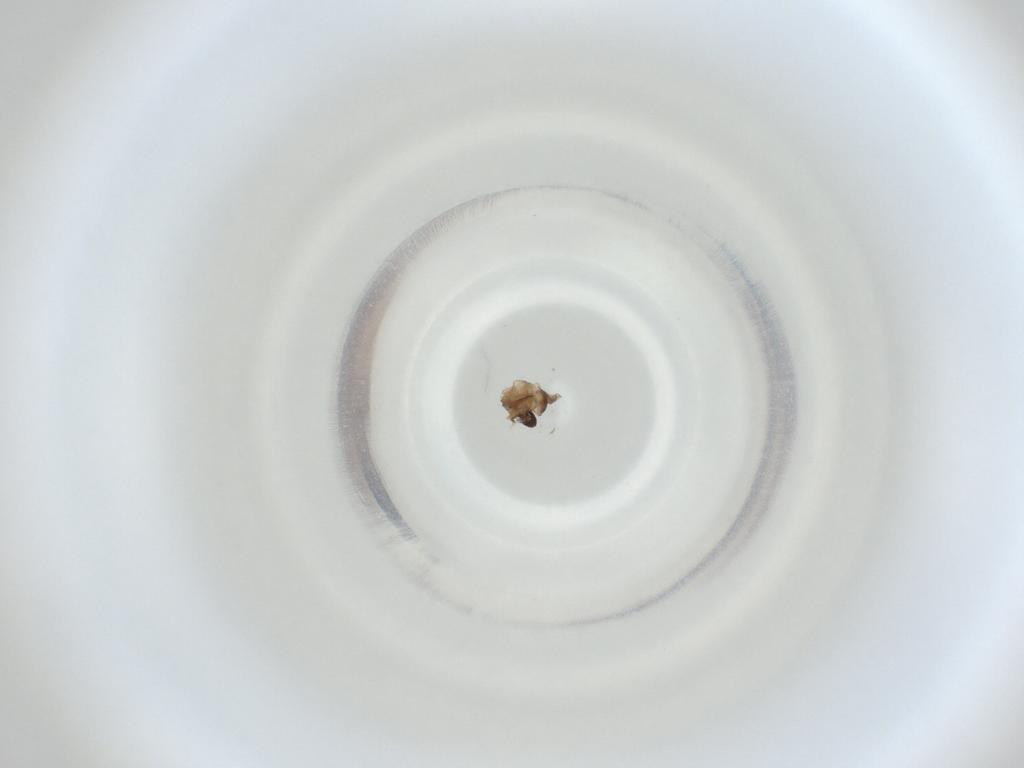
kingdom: Animalia
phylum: Arthropoda
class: Insecta
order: Diptera
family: Cecidomyiidae
